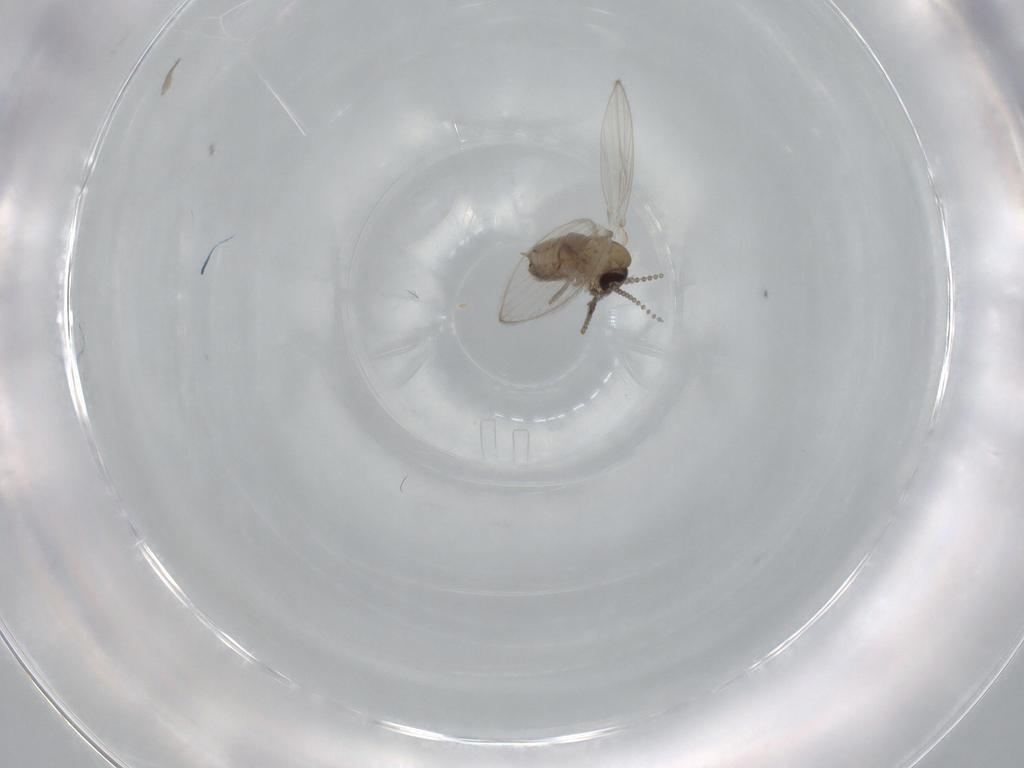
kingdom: Animalia
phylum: Arthropoda
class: Insecta
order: Diptera
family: Psychodidae
